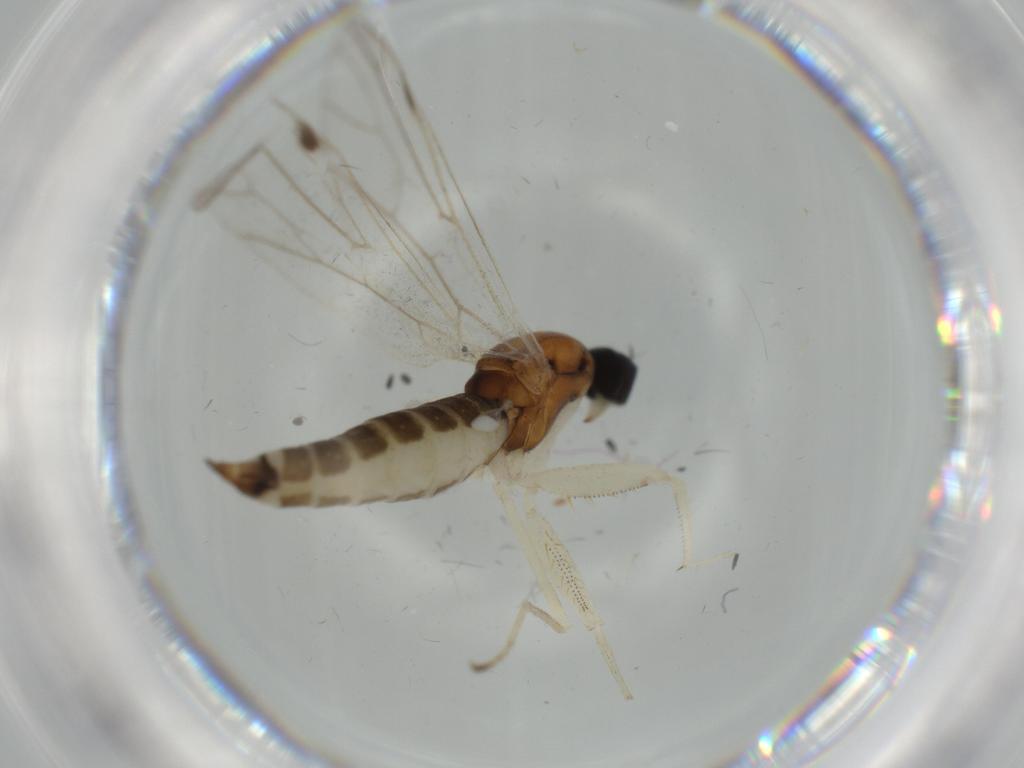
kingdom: Animalia
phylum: Arthropoda
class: Insecta
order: Diptera
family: Empididae
